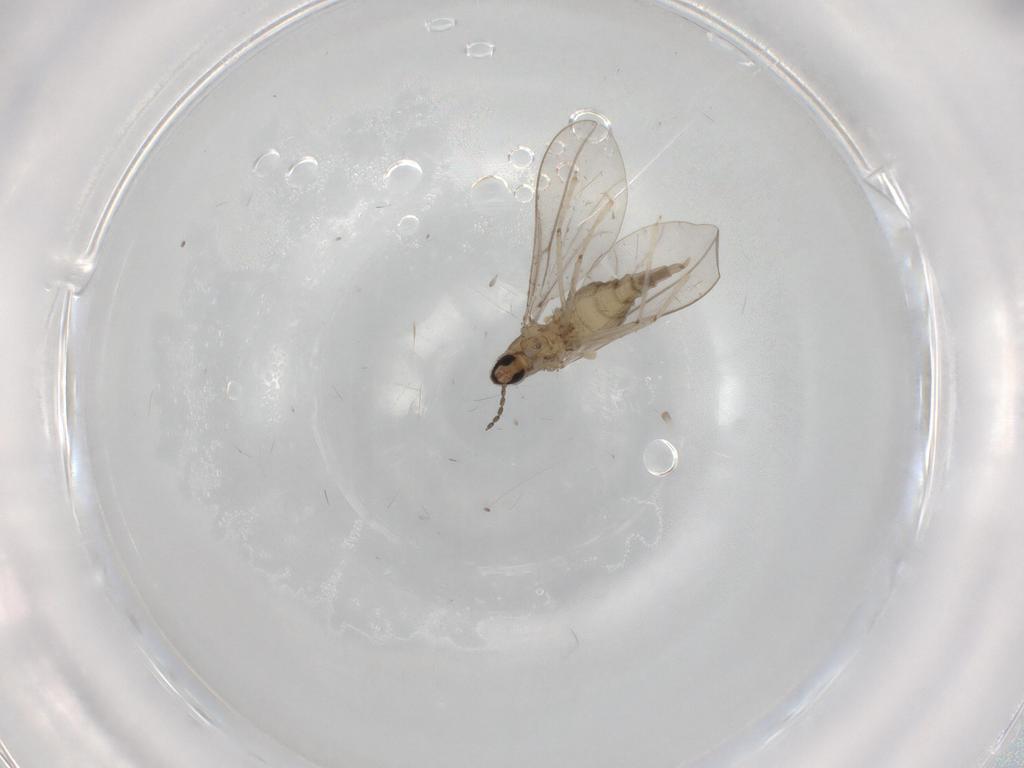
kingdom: Animalia
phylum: Arthropoda
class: Insecta
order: Diptera
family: Cecidomyiidae
